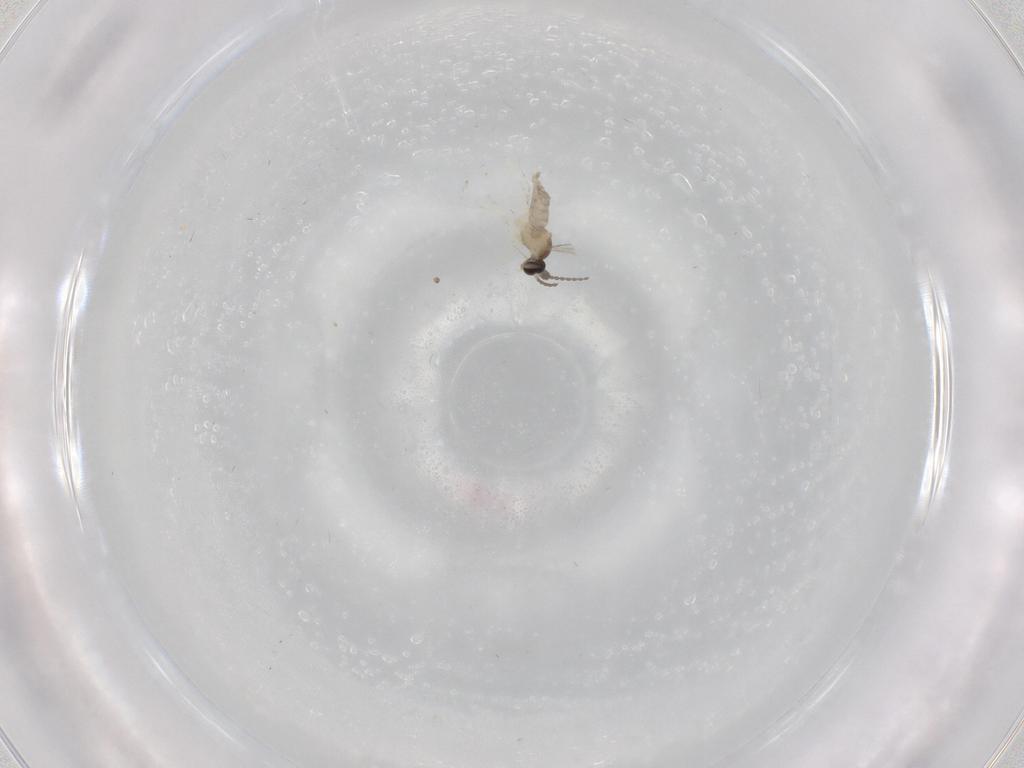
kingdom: Animalia
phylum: Arthropoda
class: Insecta
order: Diptera
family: Cecidomyiidae
